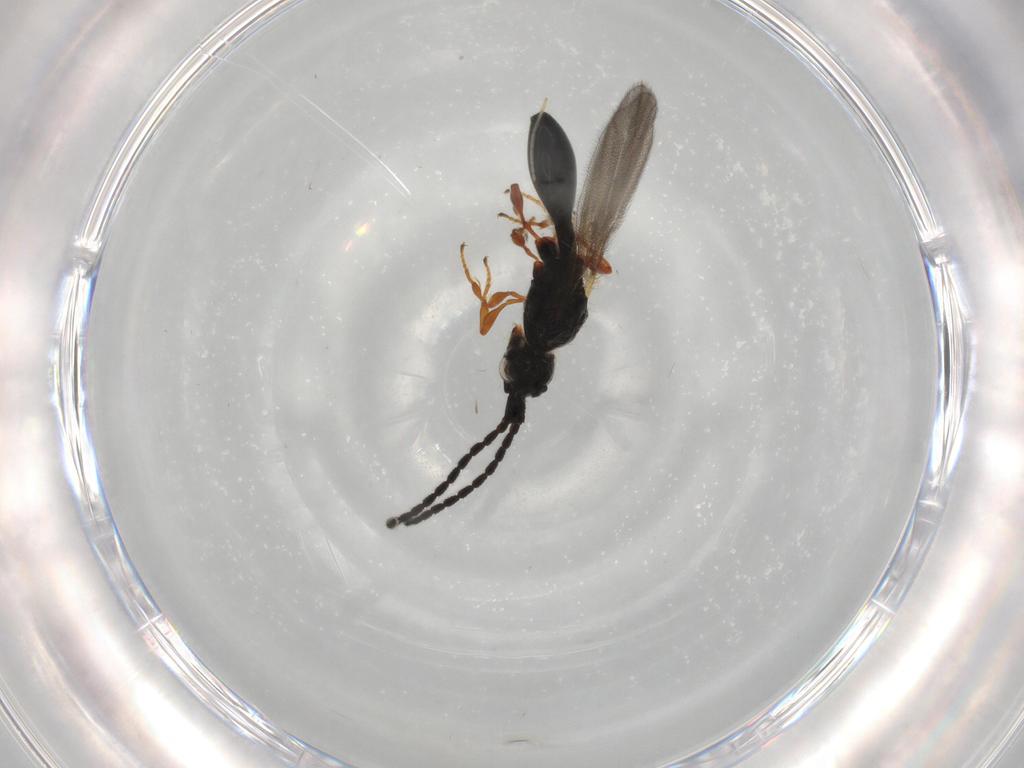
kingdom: Animalia
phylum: Arthropoda
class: Insecta
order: Hymenoptera
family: Diapriidae
